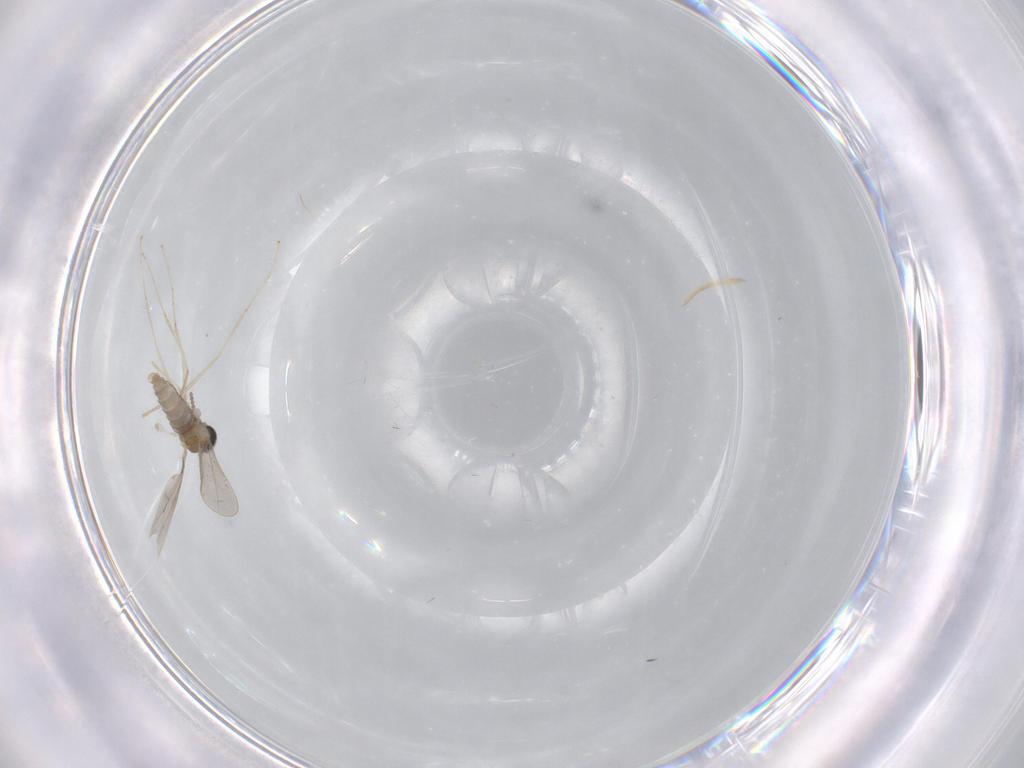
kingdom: Animalia
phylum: Arthropoda
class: Insecta
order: Diptera
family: Cecidomyiidae
